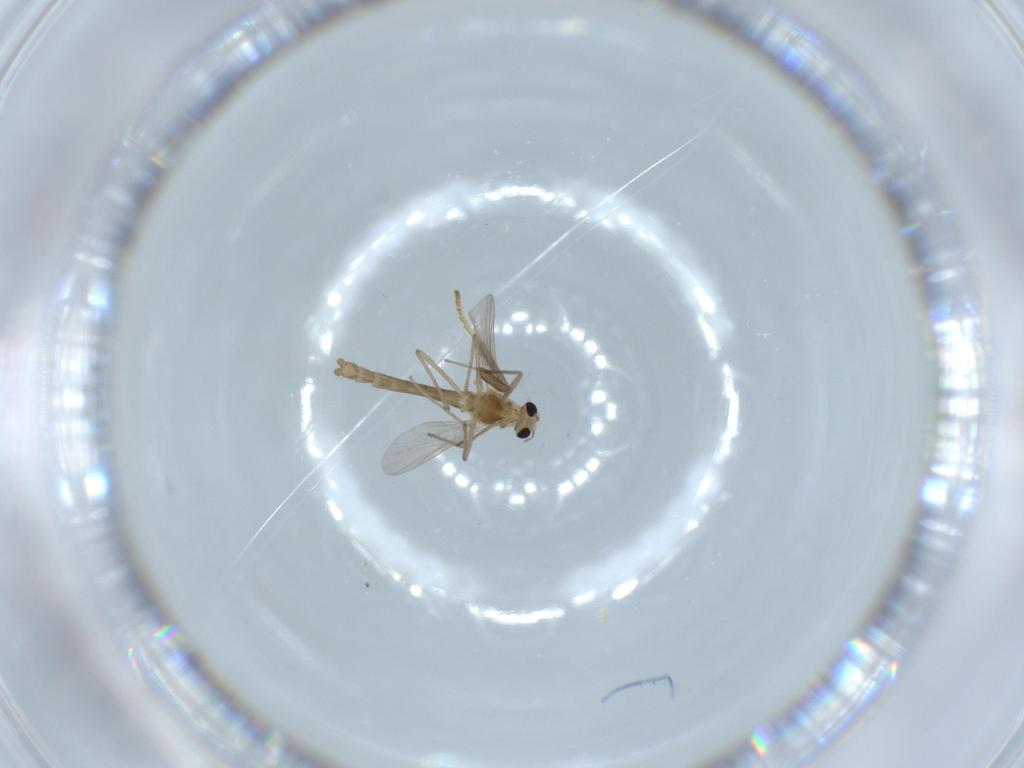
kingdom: Animalia
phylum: Arthropoda
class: Insecta
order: Diptera
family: Chironomidae
